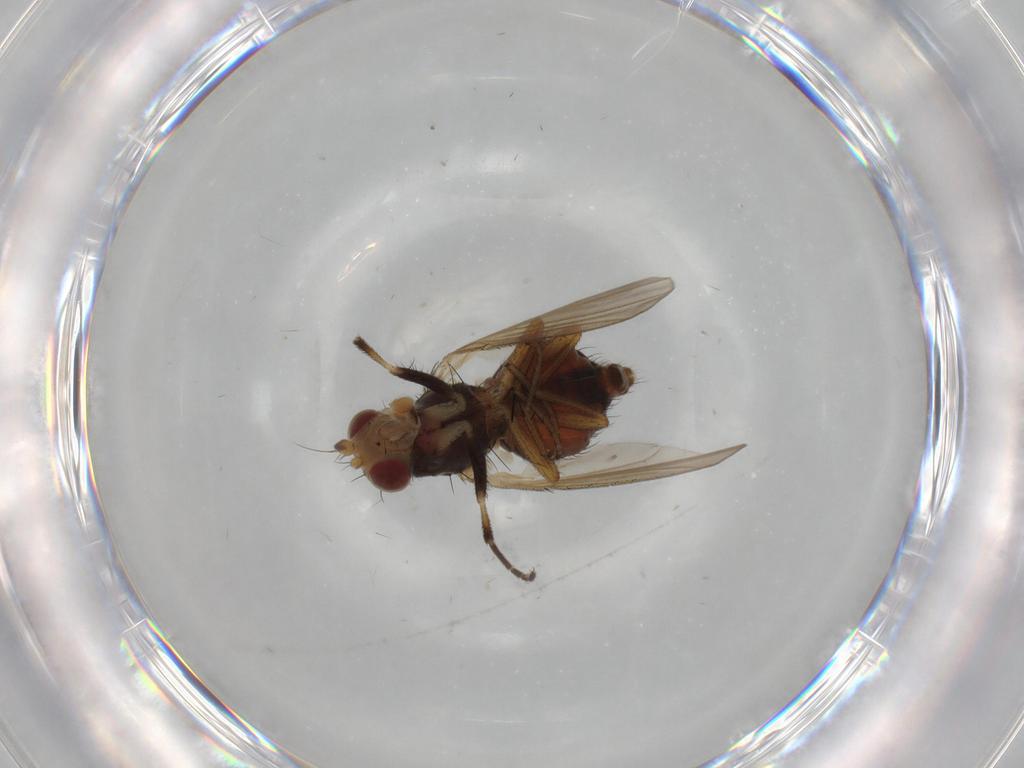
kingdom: Animalia
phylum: Arthropoda
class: Insecta
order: Diptera
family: Ulidiidae
